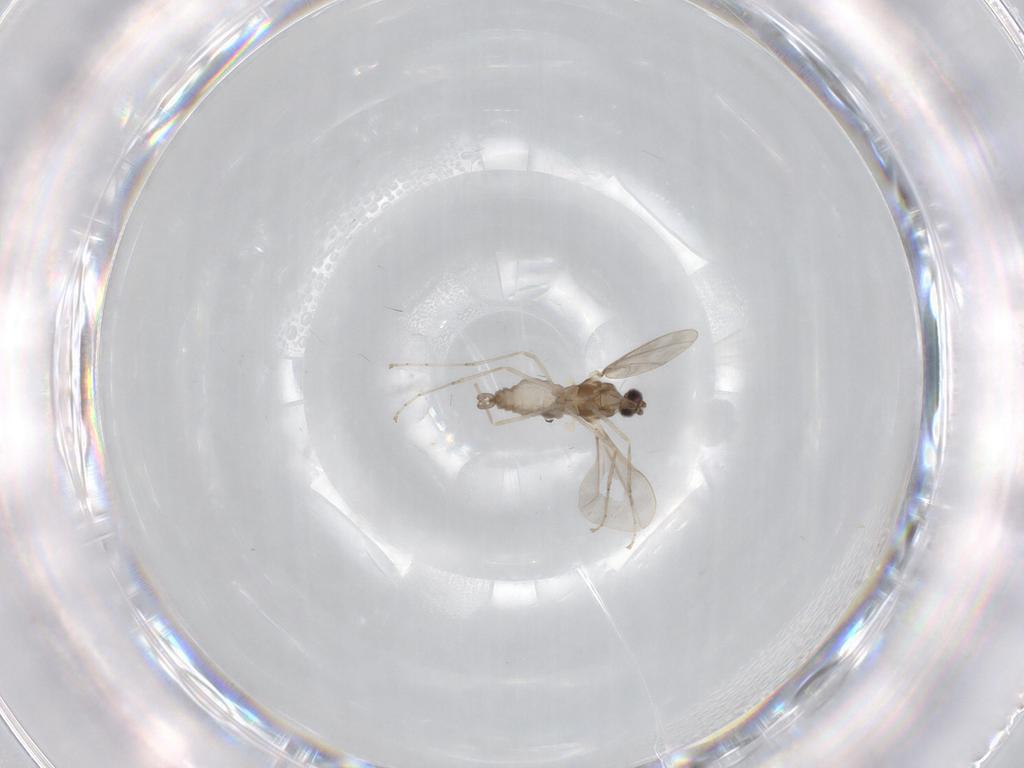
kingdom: Animalia
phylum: Arthropoda
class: Insecta
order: Diptera
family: Cecidomyiidae
